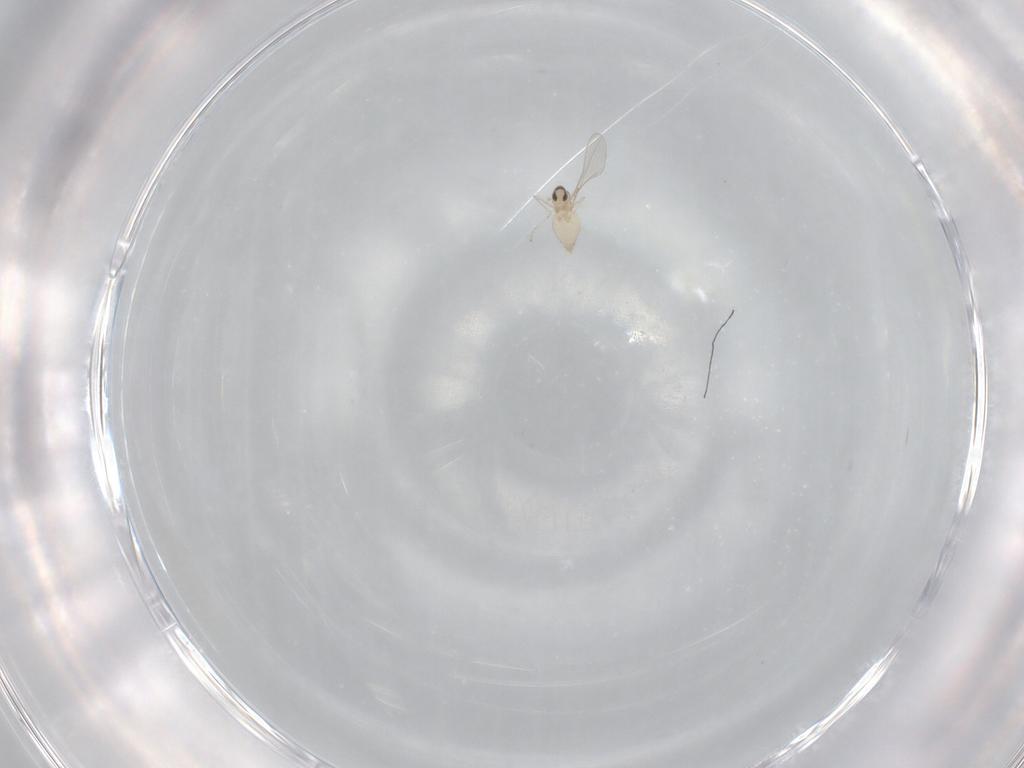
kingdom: Animalia
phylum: Arthropoda
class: Insecta
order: Diptera
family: Cecidomyiidae
